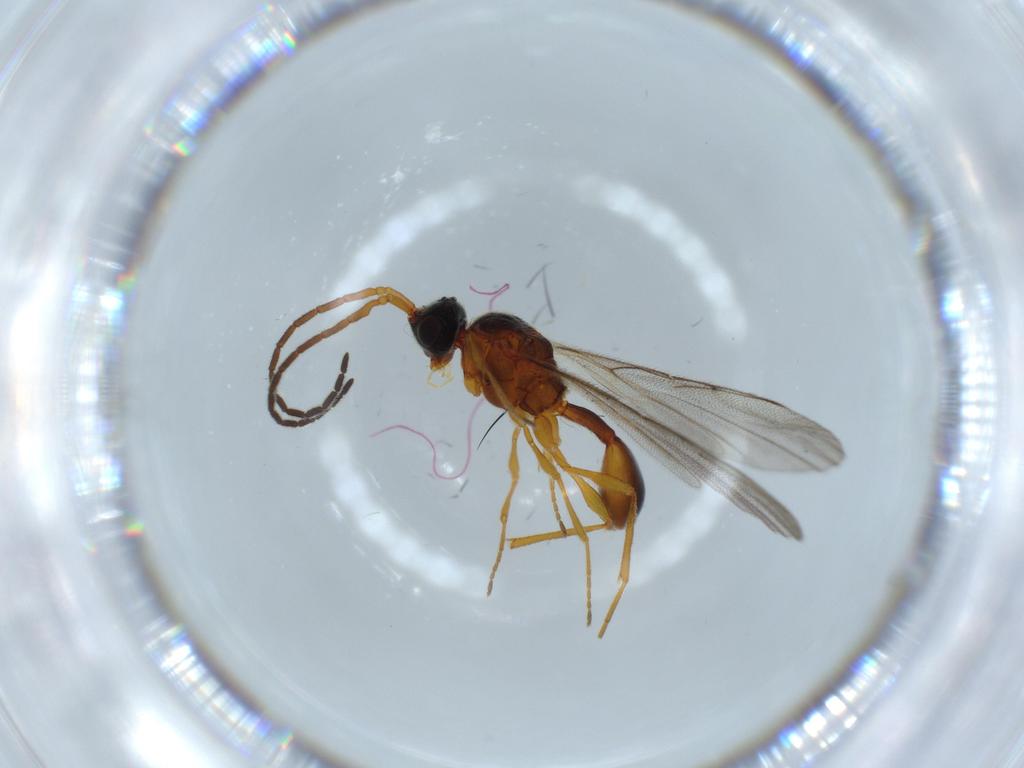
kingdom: Animalia
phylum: Arthropoda
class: Insecta
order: Hymenoptera
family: Diapriidae
